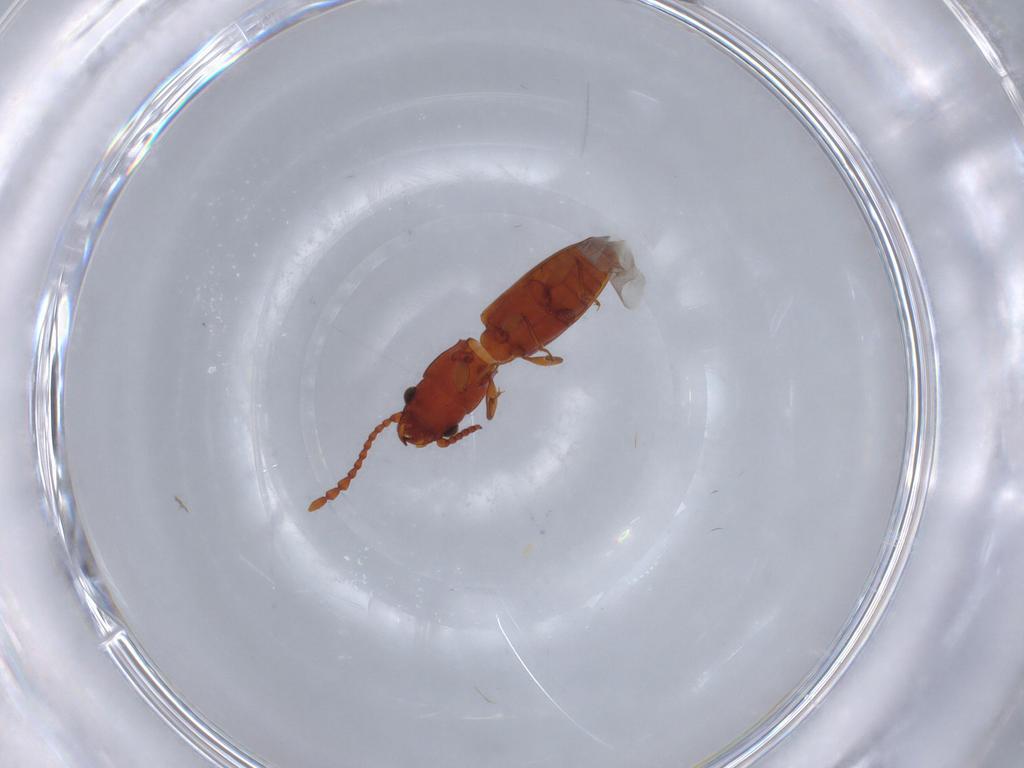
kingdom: Animalia
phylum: Arthropoda
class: Insecta
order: Coleoptera
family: Laemophloeidae
